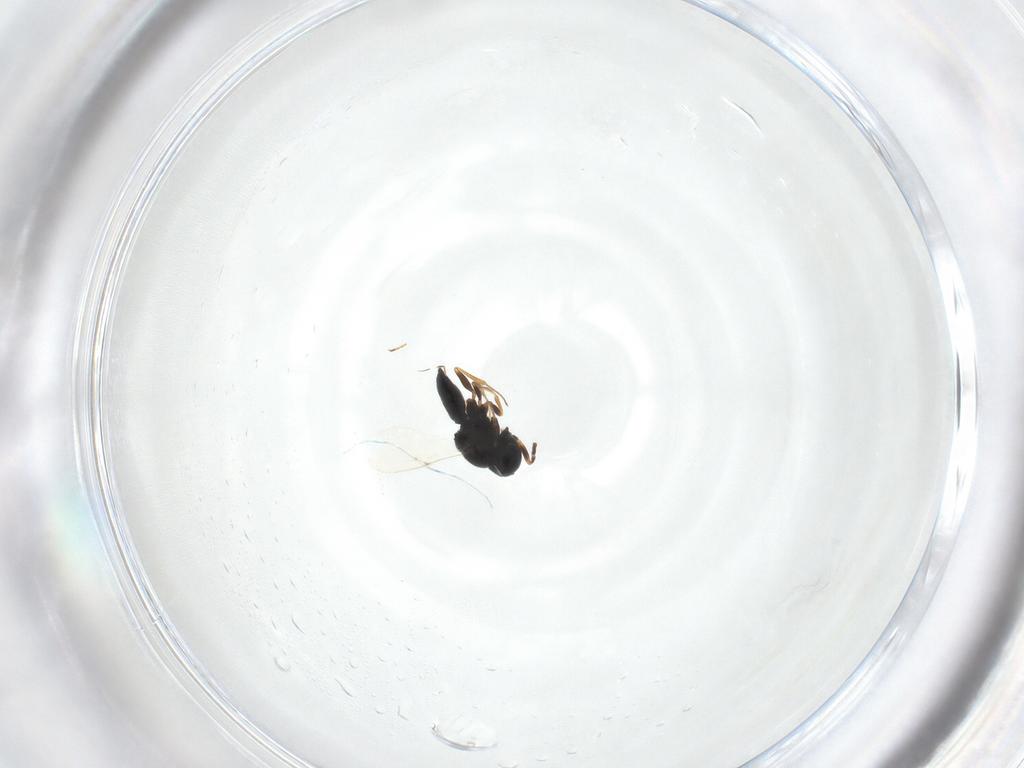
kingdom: Animalia
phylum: Arthropoda
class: Insecta
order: Hymenoptera
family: Scelionidae
